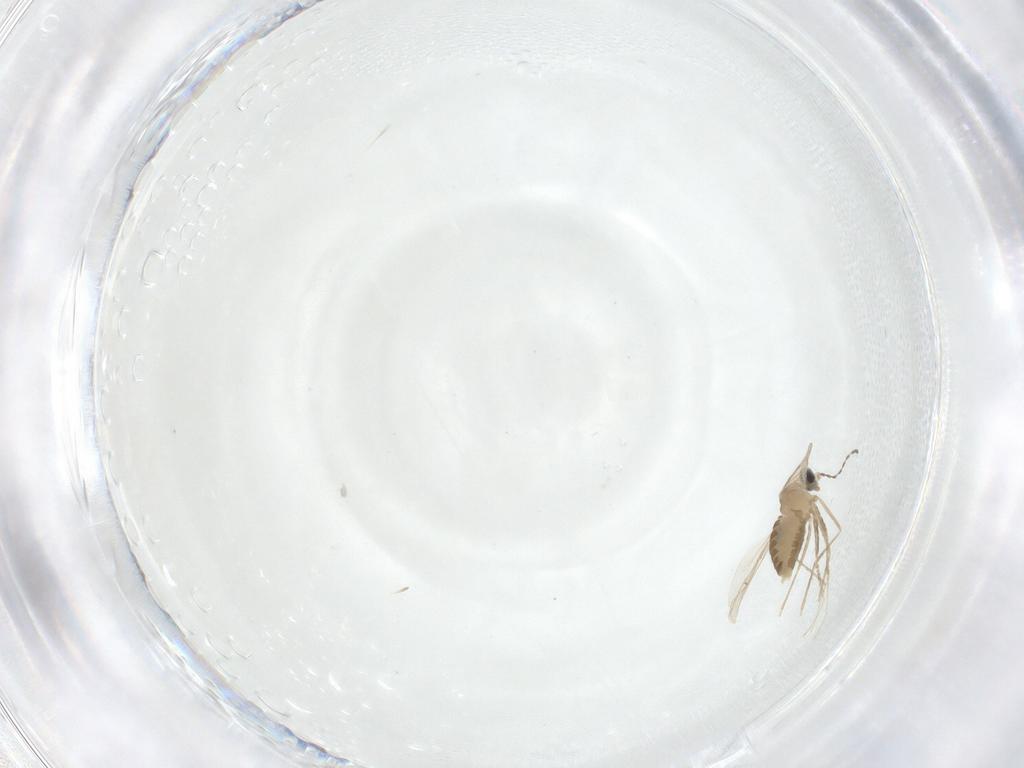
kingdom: Animalia
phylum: Arthropoda
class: Insecta
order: Diptera
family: Cecidomyiidae
